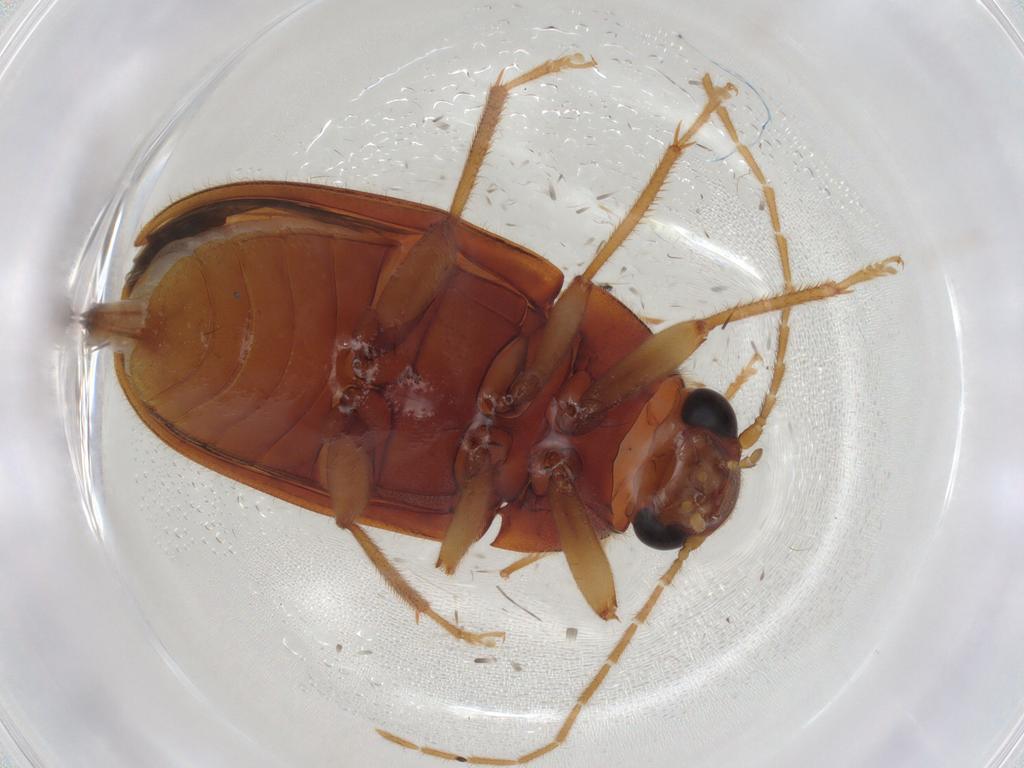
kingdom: Animalia
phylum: Arthropoda
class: Insecta
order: Coleoptera
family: Ptilodactylidae
